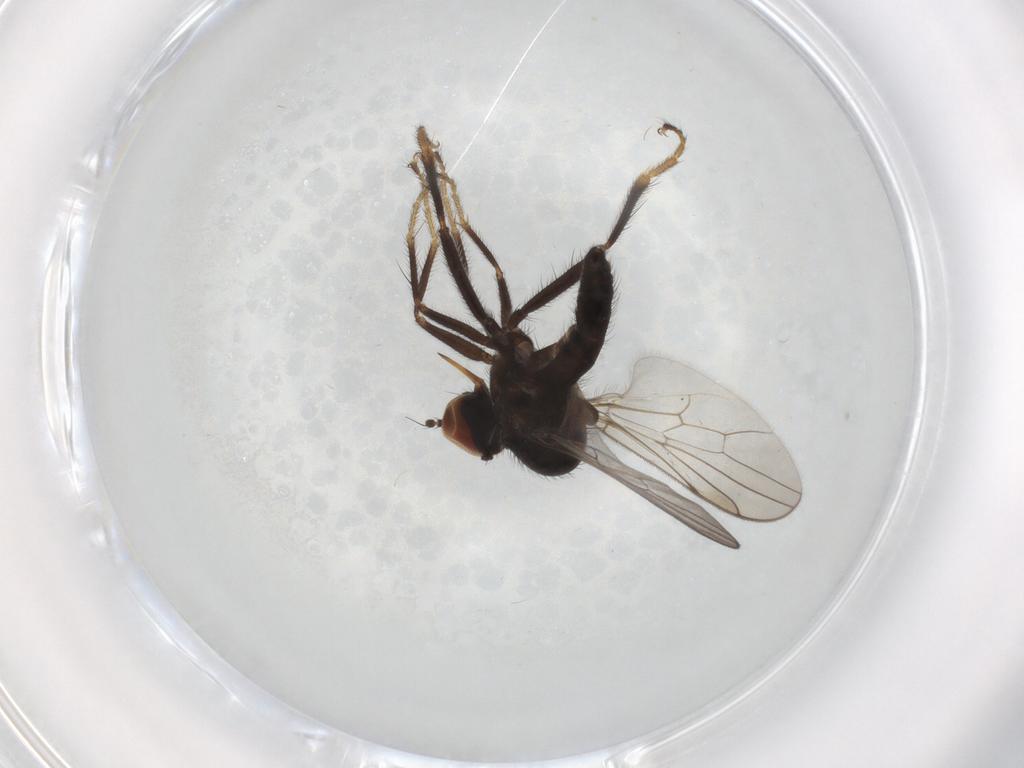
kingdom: Animalia
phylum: Arthropoda
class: Insecta
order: Diptera
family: Hybotidae
